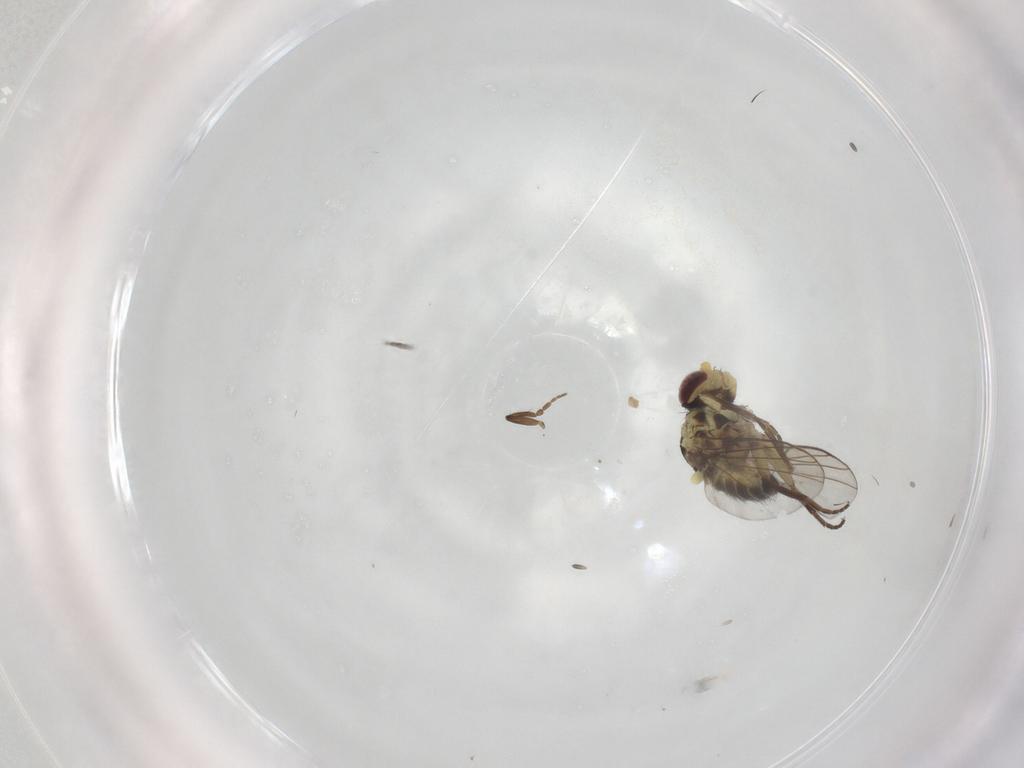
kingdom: Animalia
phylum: Arthropoda
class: Insecta
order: Diptera
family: Agromyzidae
